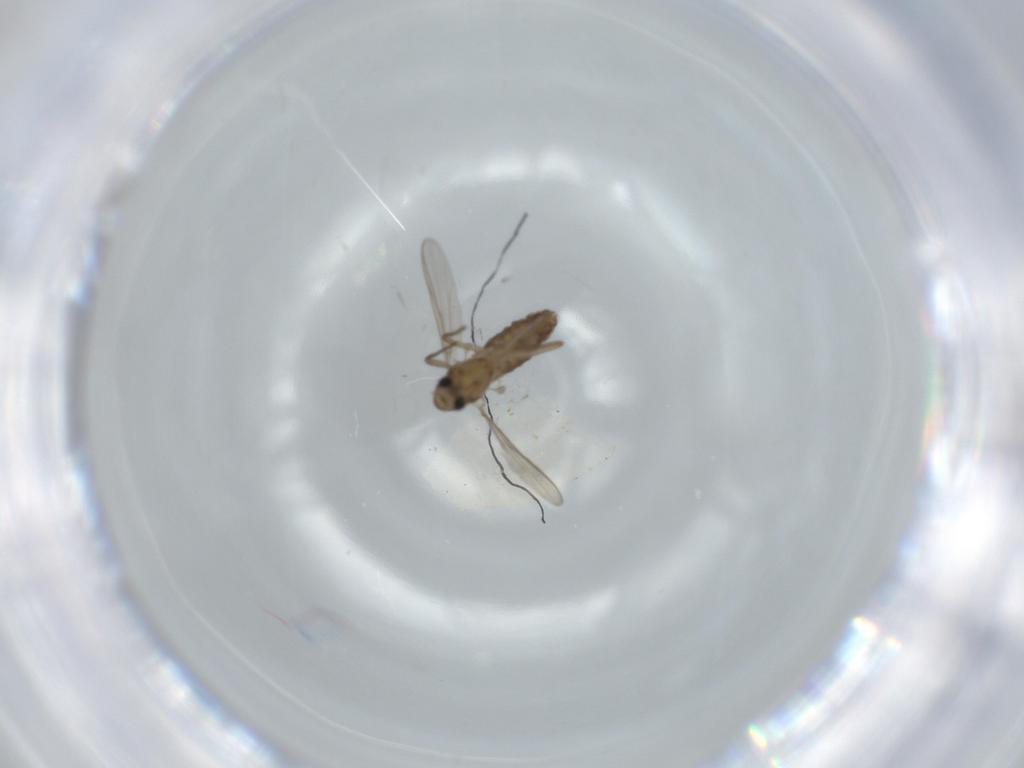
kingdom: Animalia
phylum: Arthropoda
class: Insecta
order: Diptera
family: Chironomidae
